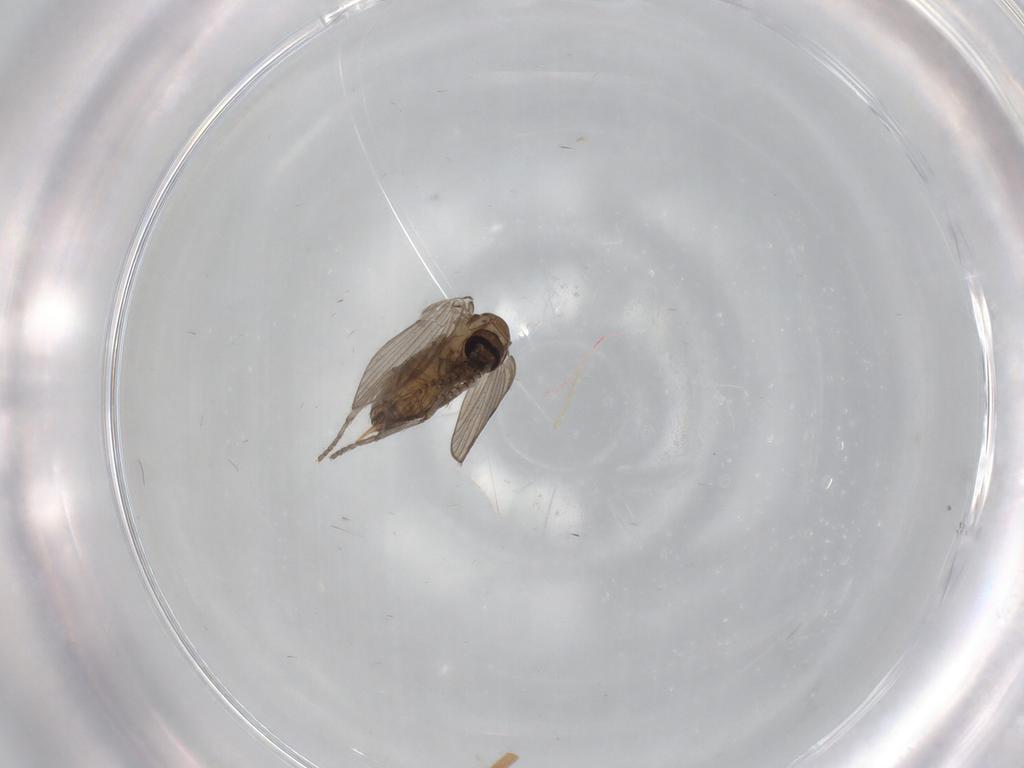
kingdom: Animalia
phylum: Arthropoda
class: Insecta
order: Diptera
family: Psychodidae
